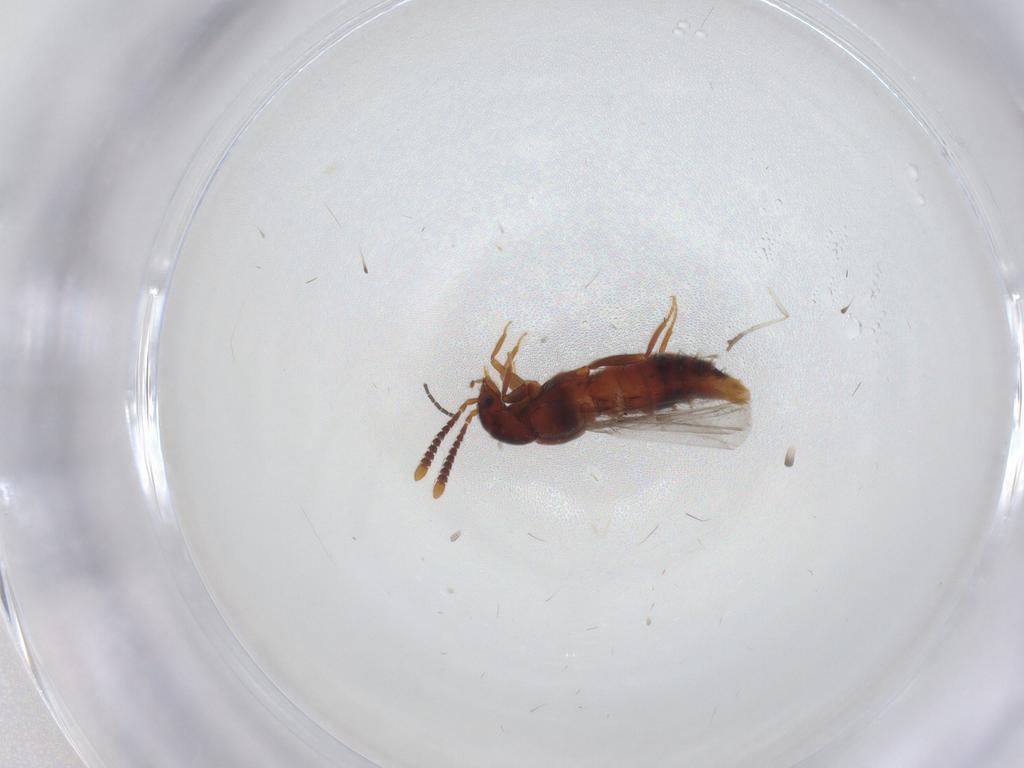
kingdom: Animalia
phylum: Arthropoda
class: Insecta
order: Coleoptera
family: Staphylinidae
